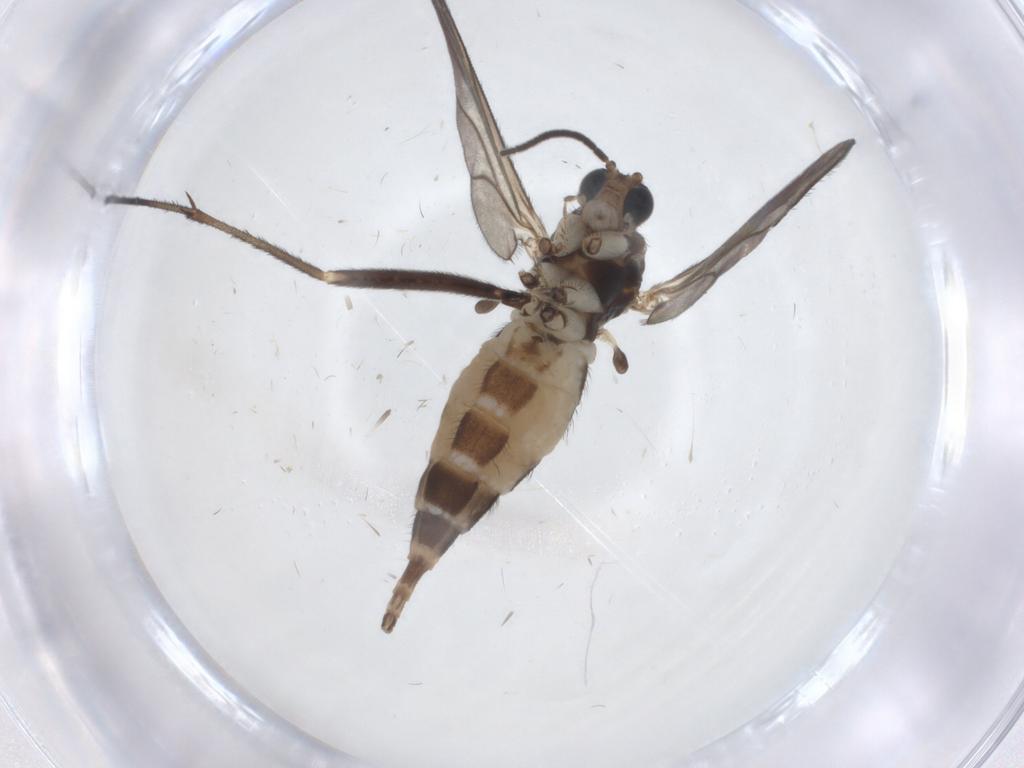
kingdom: Animalia
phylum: Arthropoda
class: Insecta
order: Diptera
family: Sciaridae
